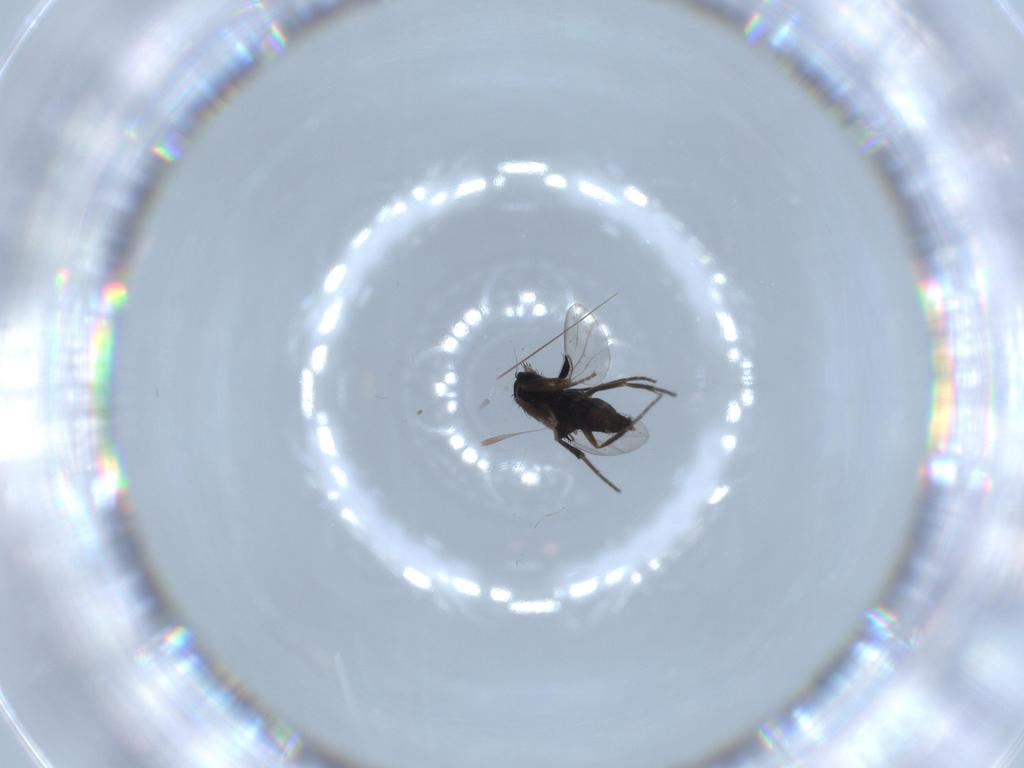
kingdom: Animalia
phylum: Arthropoda
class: Insecta
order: Diptera
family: Phoridae
